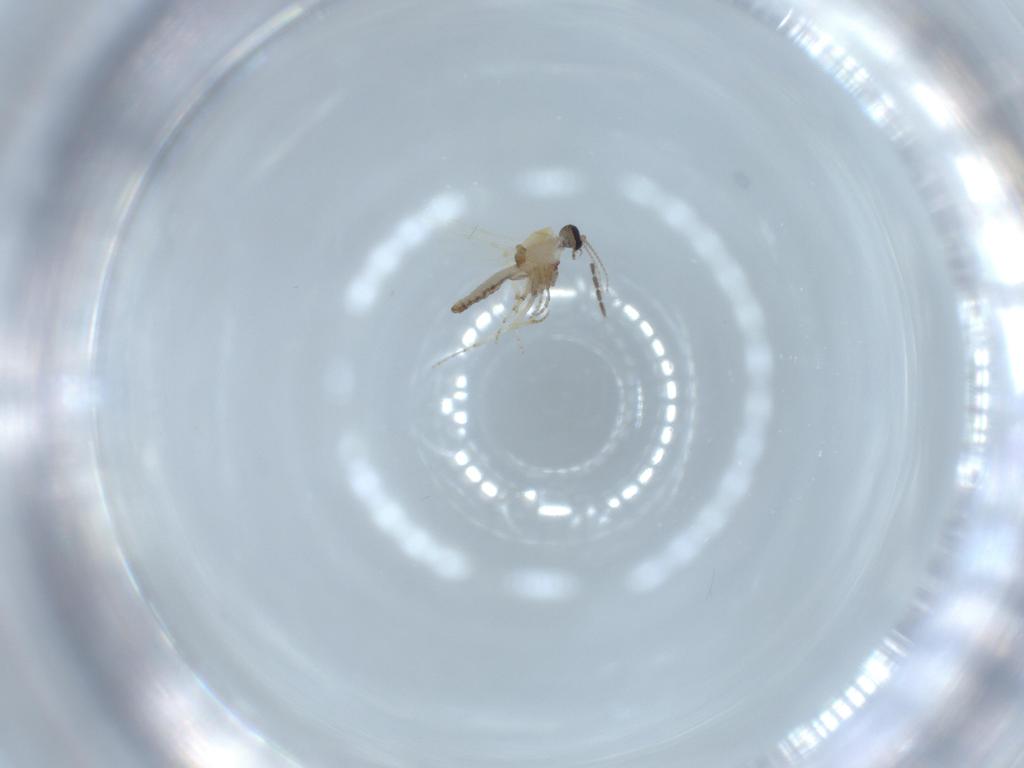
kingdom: Animalia
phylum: Arthropoda
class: Insecta
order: Diptera
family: Sciaridae
